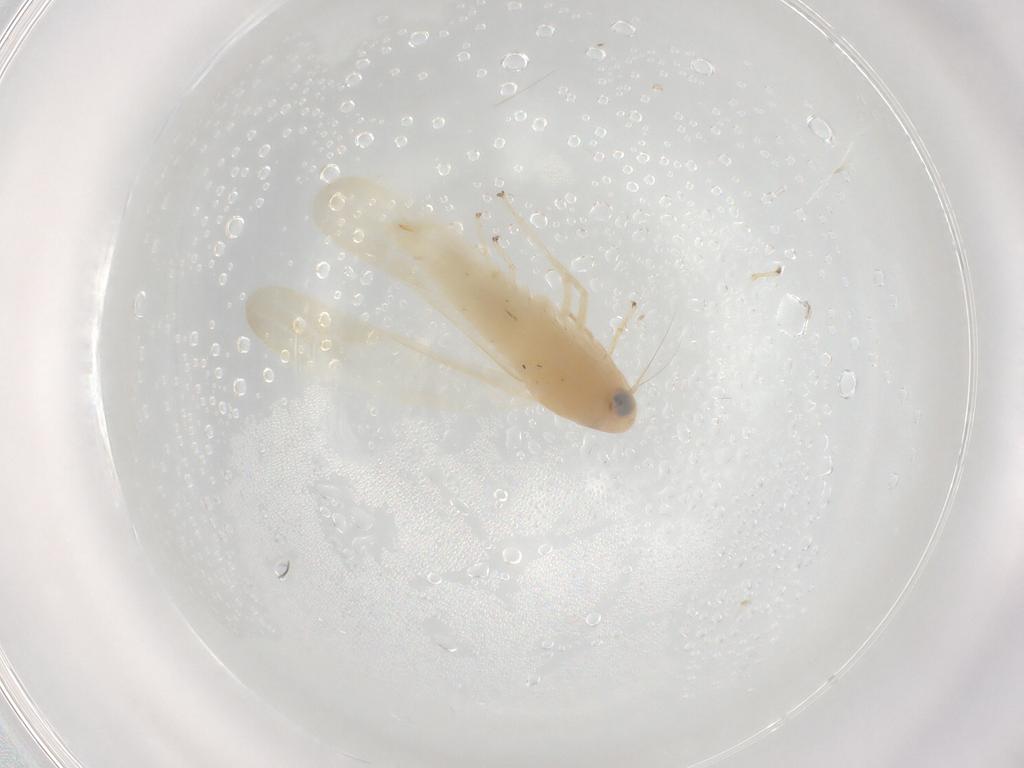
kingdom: Animalia
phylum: Arthropoda
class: Insecta
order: Hemiptera
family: Cicadellidae
